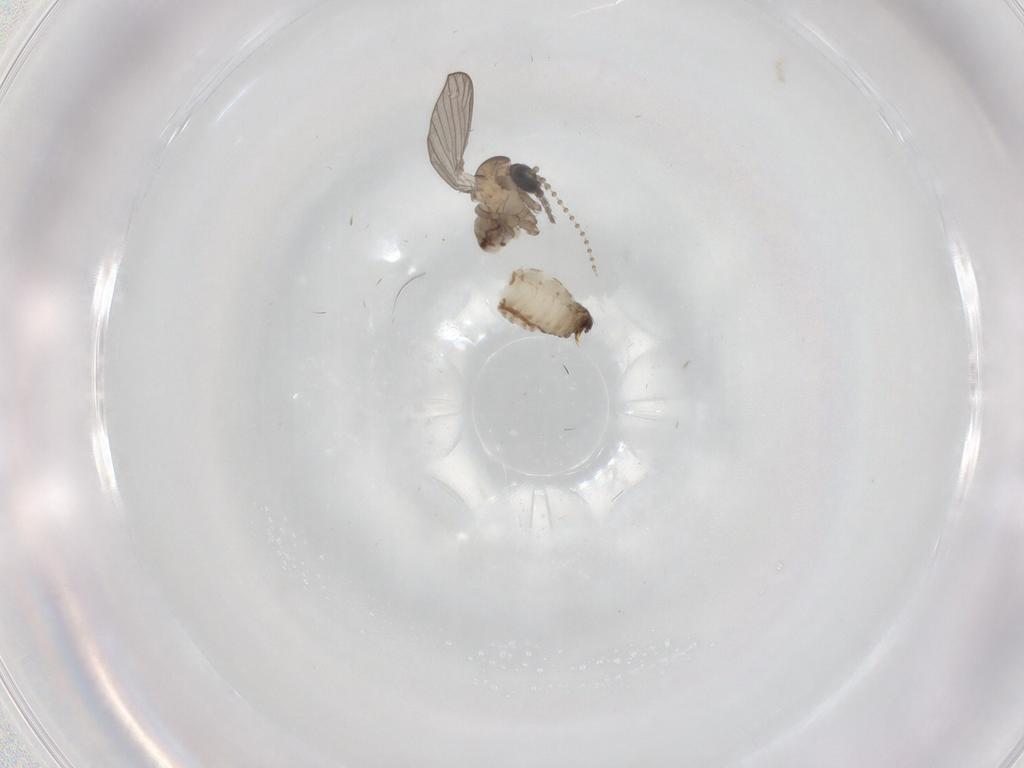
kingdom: Animalia
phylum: Arthropoda
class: Insecta
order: Diptera
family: Psychodidae
